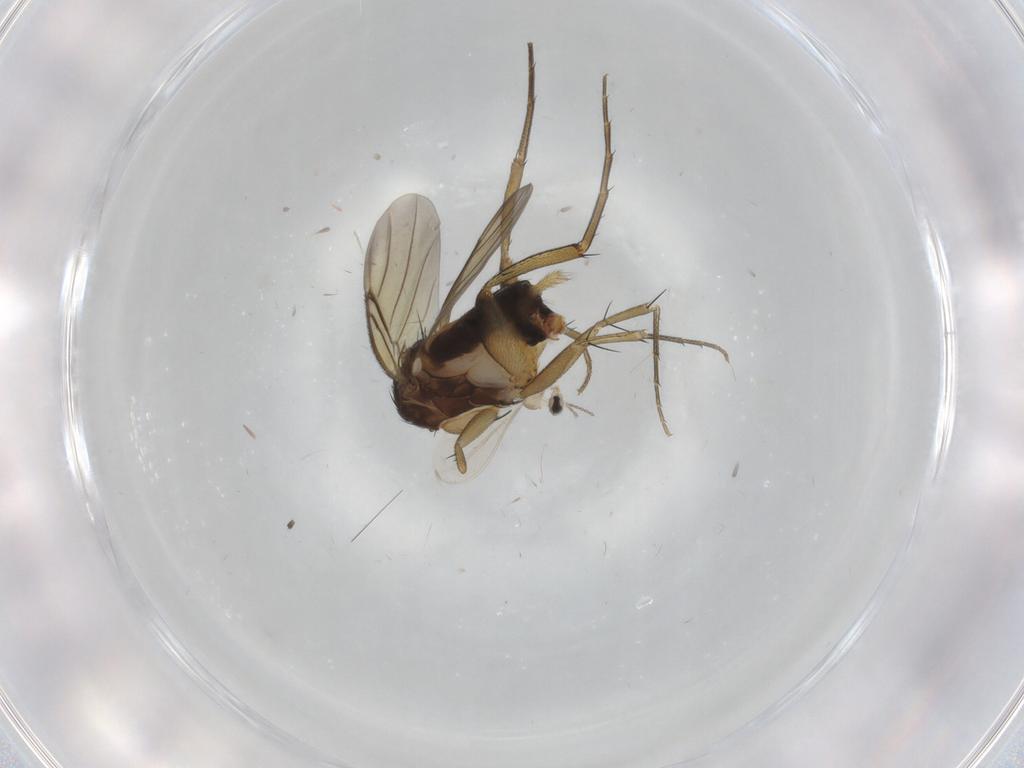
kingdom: Animalia
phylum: Arthropoda
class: Insecta
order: Diptera
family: Phoridae
